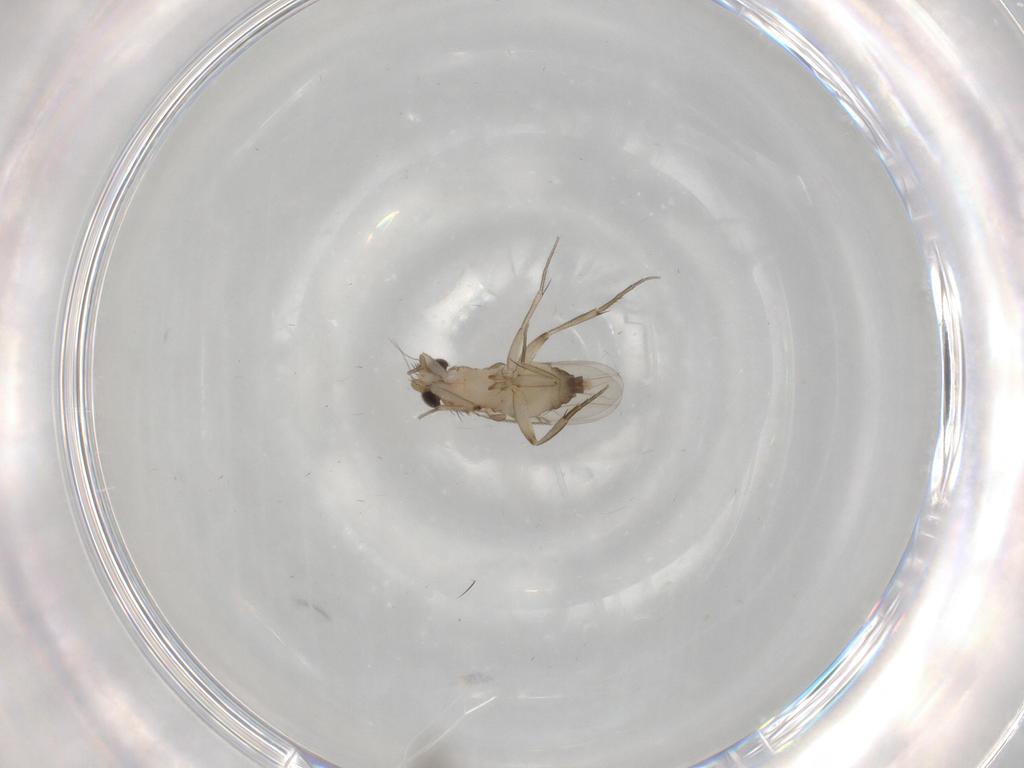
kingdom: Animalia
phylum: Arthropoda
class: Insecta
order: Diptera
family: Phoridae
